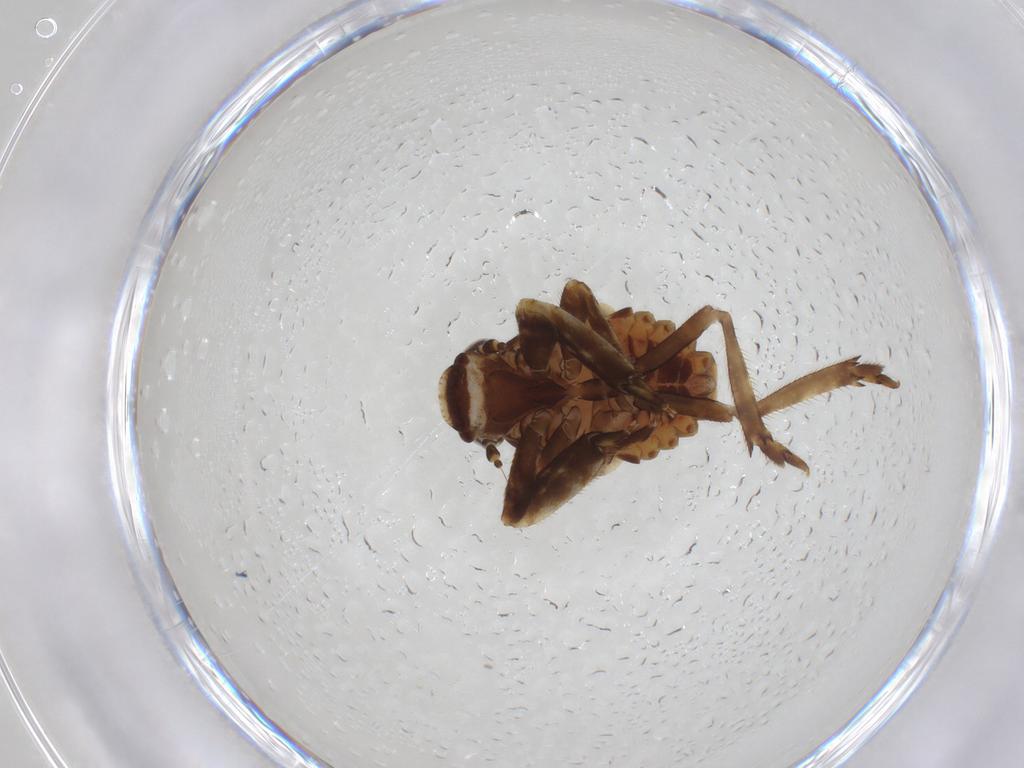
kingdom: Animalia
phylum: Arthropoda
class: Insecta
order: Hemiptera
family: Fulgoroidea_incertae_sedis
